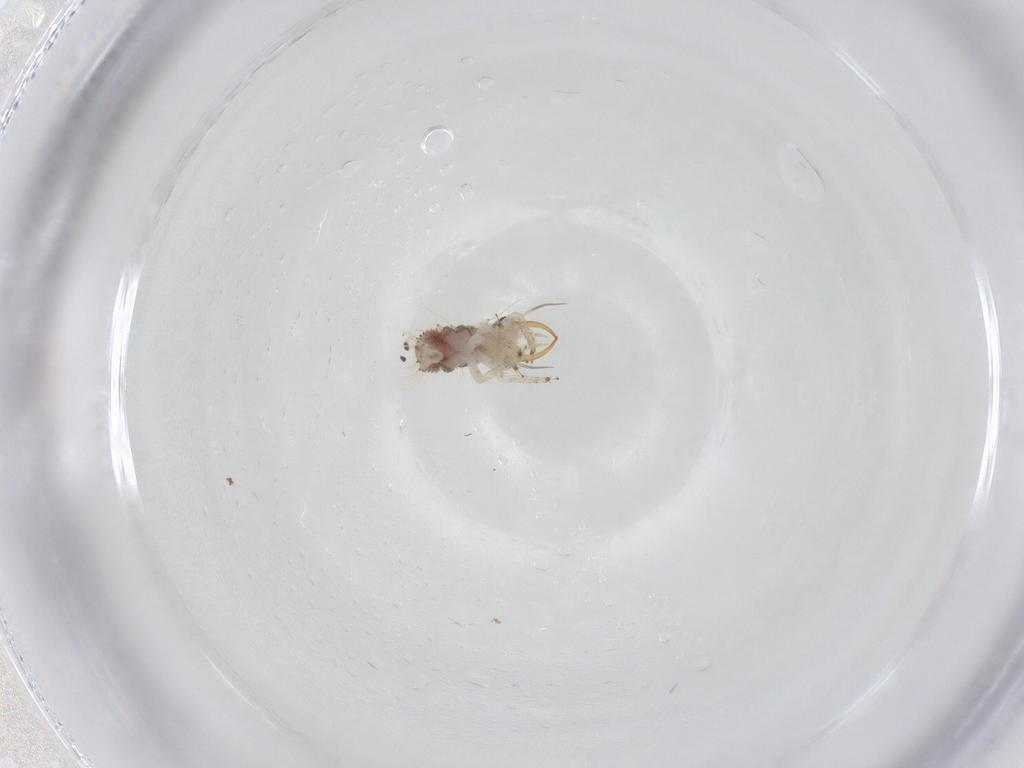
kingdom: Animalia
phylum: Arthropoda
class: Insecta
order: Neuroptera
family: Chrysopidae
